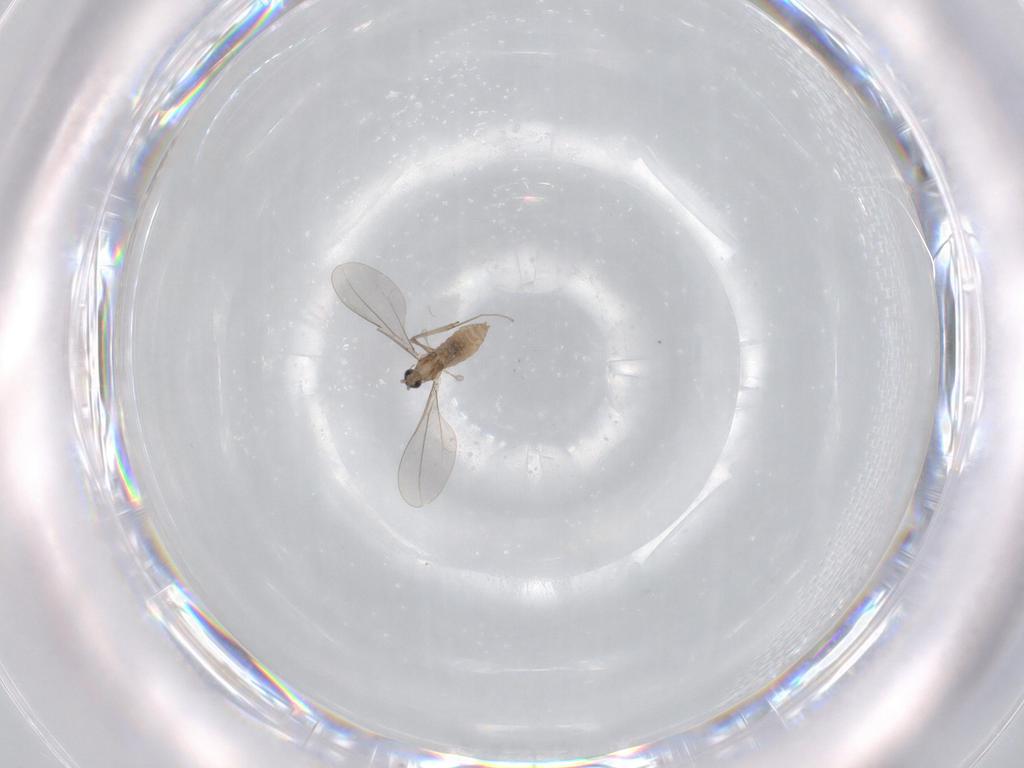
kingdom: Animalia
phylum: Arthropoda
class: Insecta
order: Diptera
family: Cecidomyiidae
